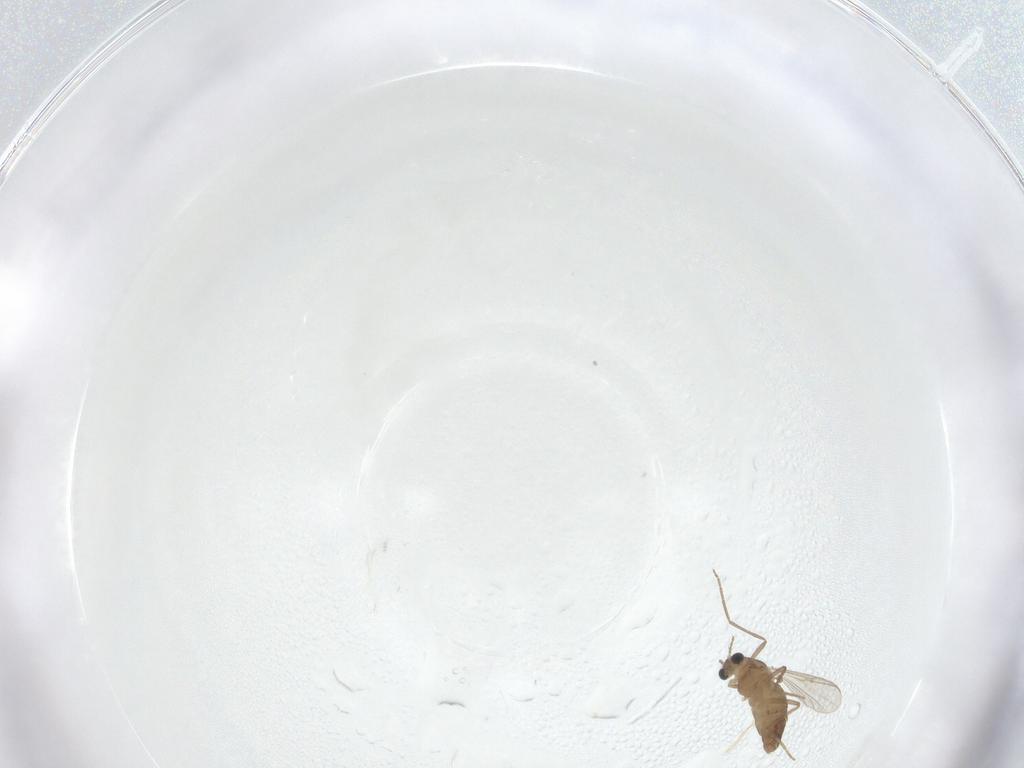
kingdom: Animalia
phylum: Arthropoda
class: Insecta
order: Diptera
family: Chironomidae
